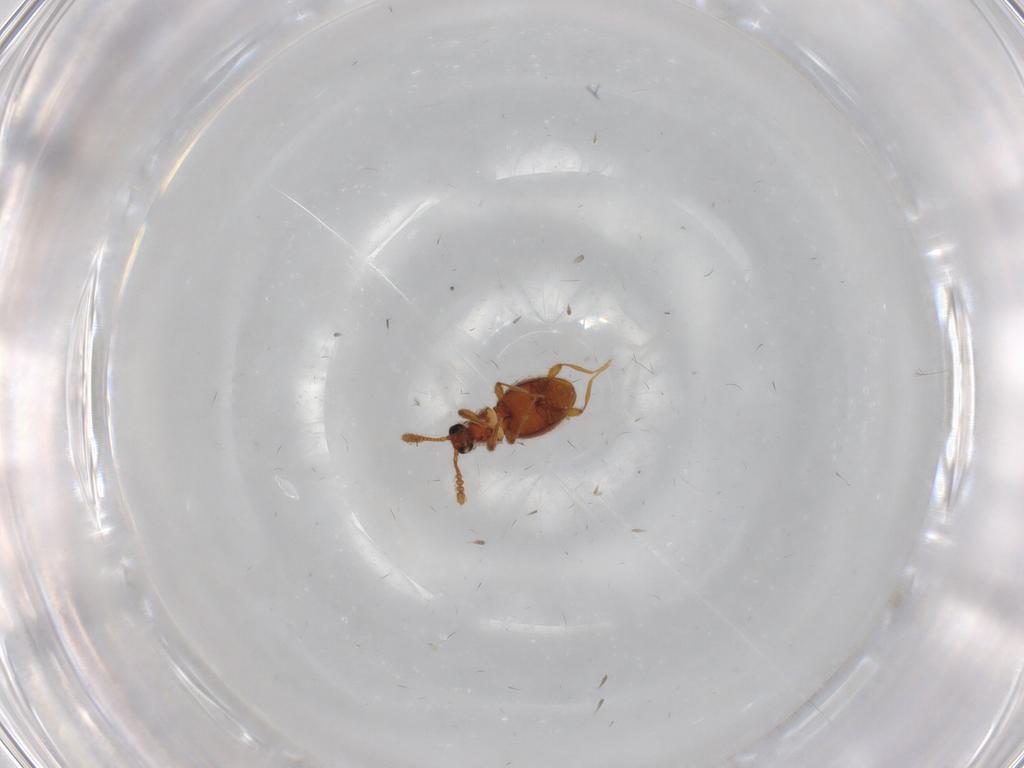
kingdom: Animalia
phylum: Arthropoda
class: Insecta
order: Coleoptera
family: Staphylinidae
